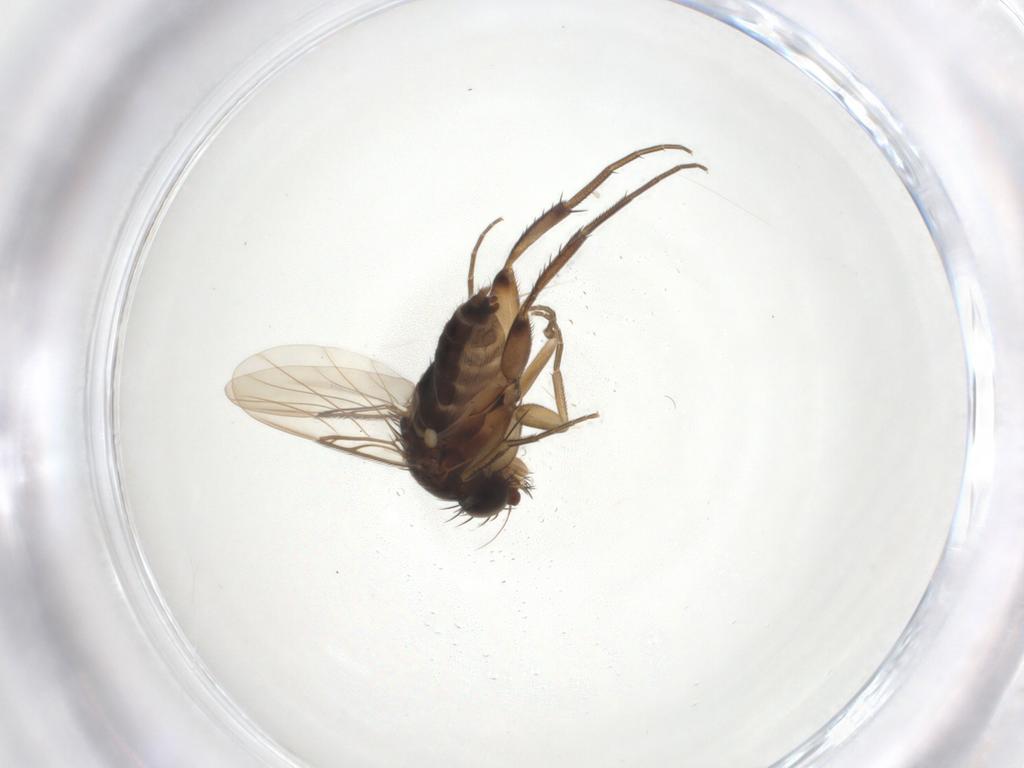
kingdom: Animalia
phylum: Arthropoda
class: Insecta
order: Diptera
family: Phoridae
